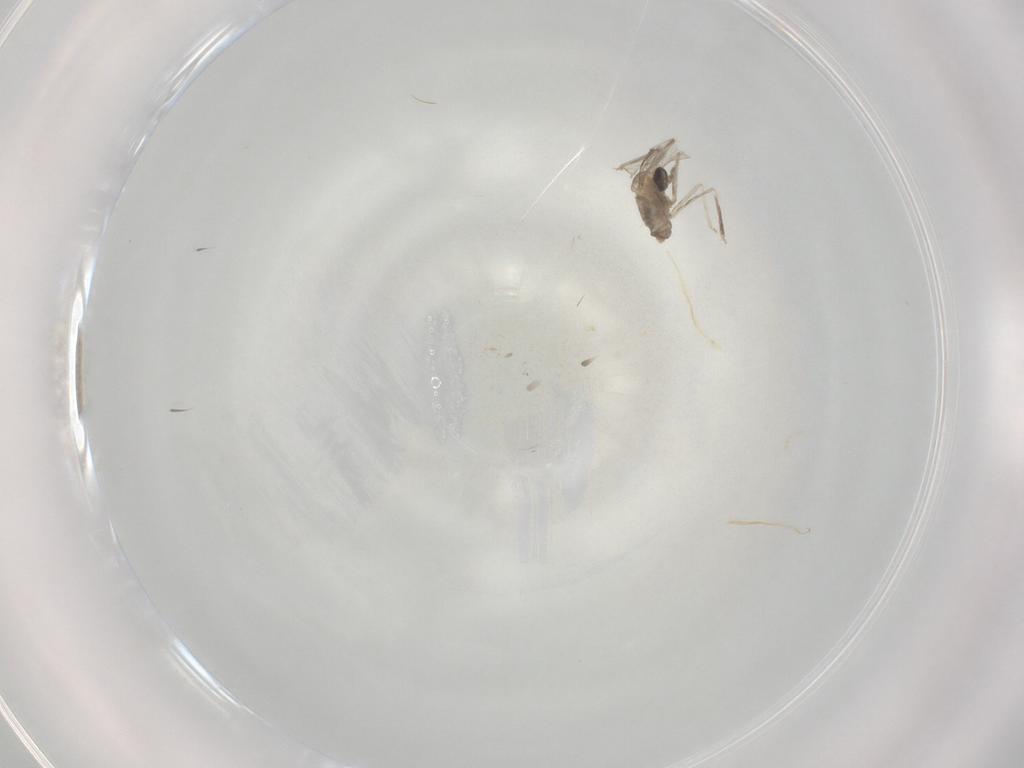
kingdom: Animalia
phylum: Arthropoda
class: Insecta
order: Diptera
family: Cecidomyiidae
